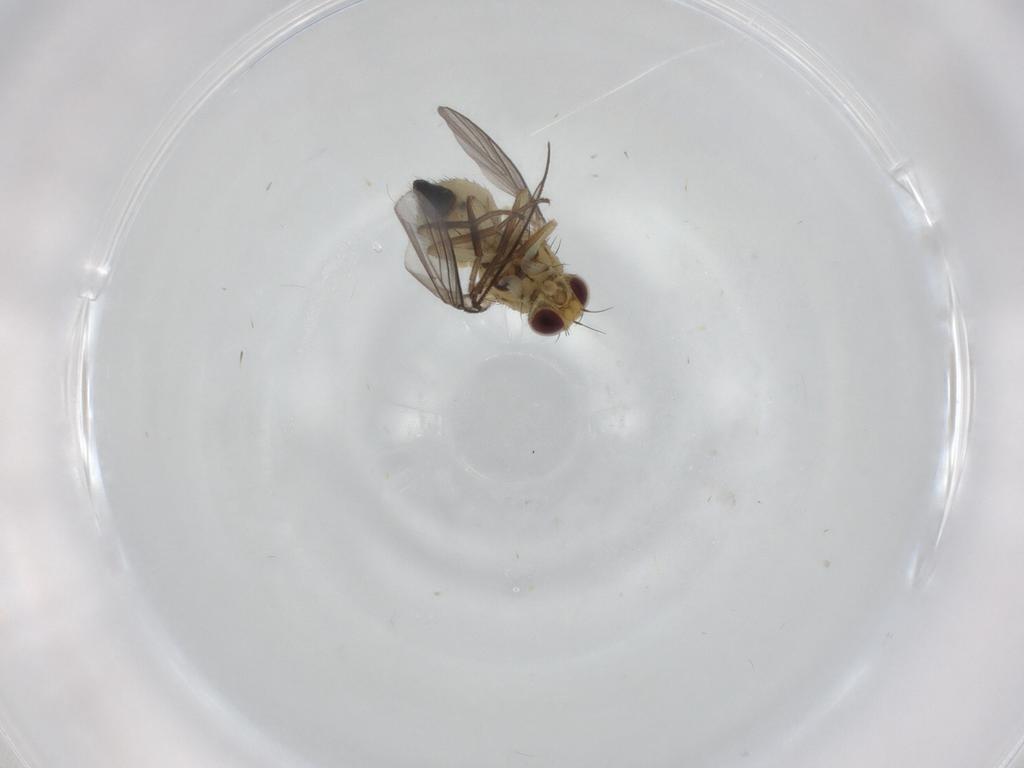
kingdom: Animalia
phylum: Arthropoda
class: Insecta
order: Diptera
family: Agromyzidae
